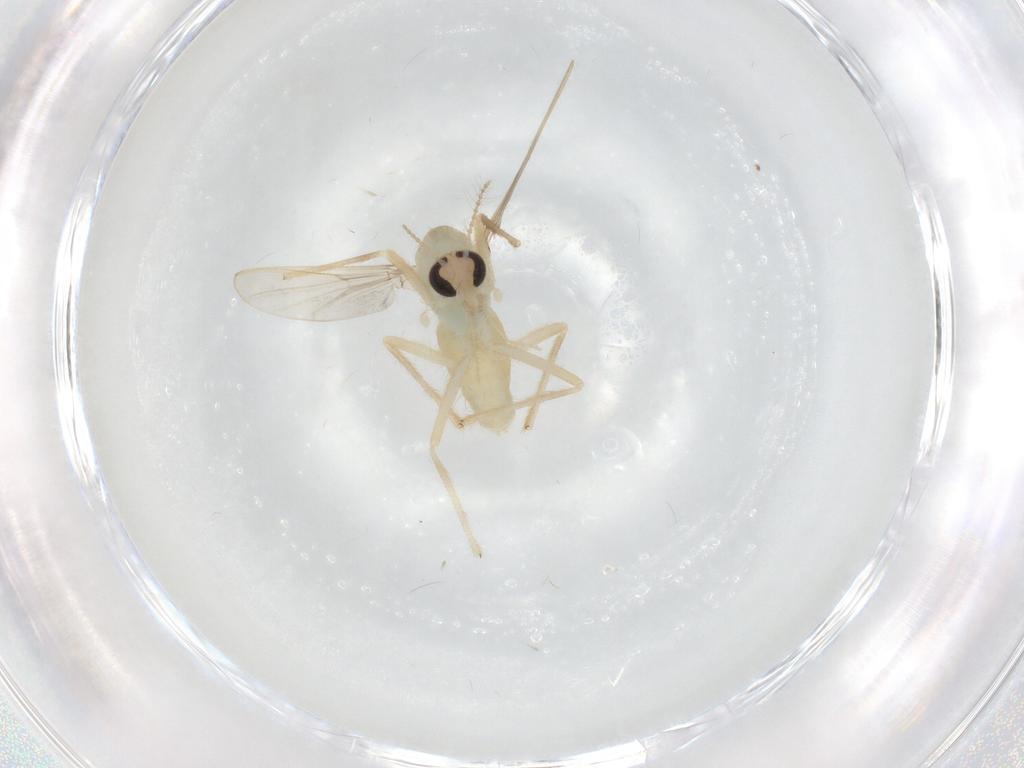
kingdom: Animalia
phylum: Arthropoda
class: Insecta
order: Diptera
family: Chironomidae
